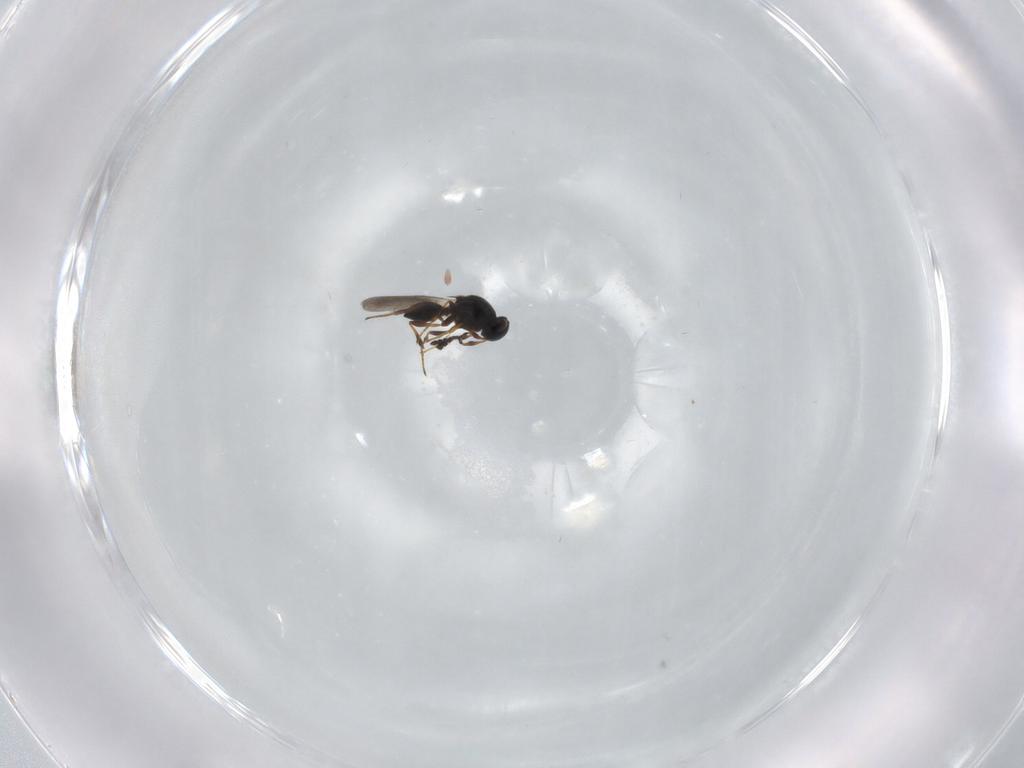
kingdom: Animalia
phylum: Arthropoda
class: Insecta
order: Hymenoptera
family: Platygastridae
